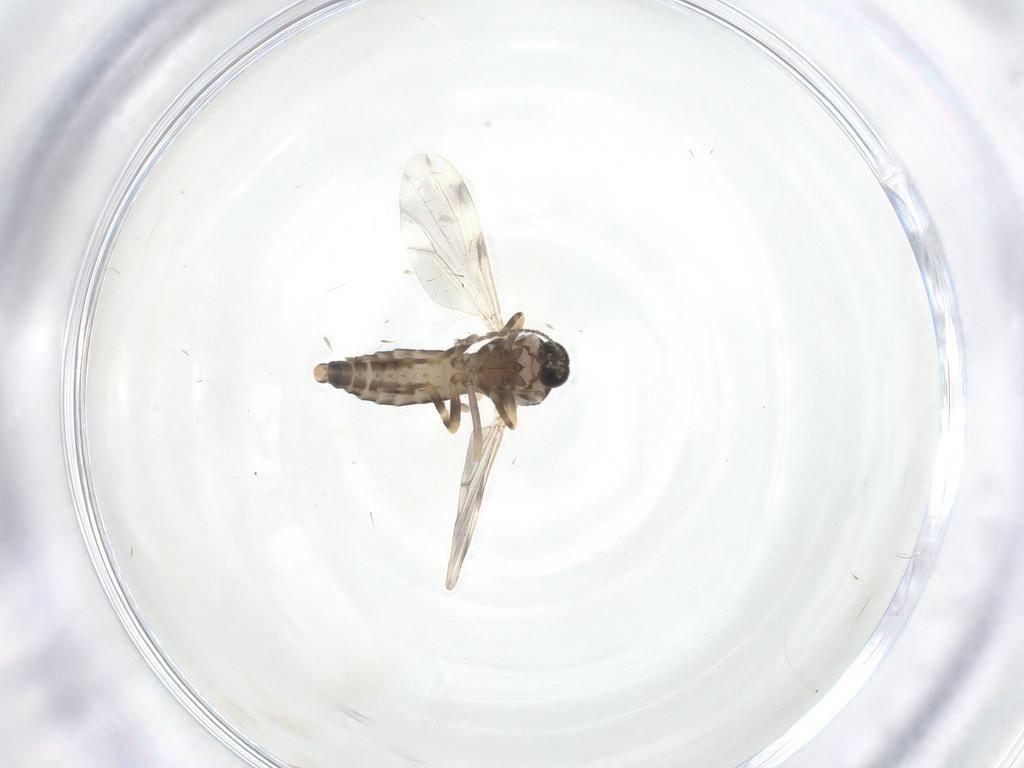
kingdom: Animalia
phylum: Arthropoda
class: Insecta
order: Diptera
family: Ceratopogonidae
